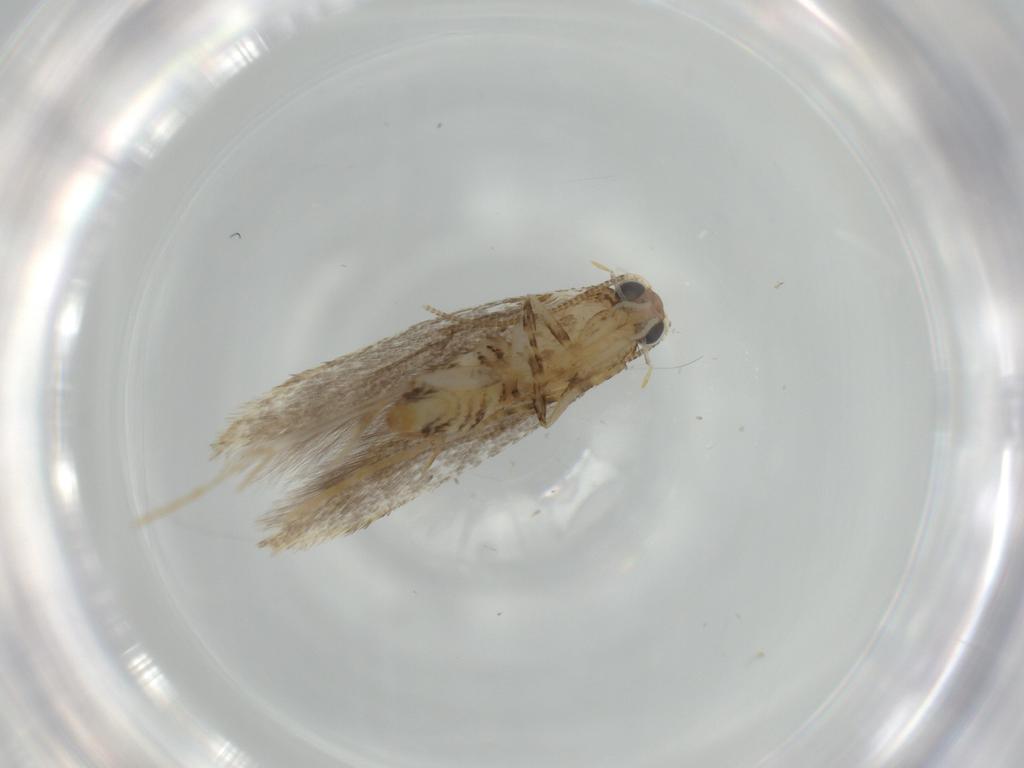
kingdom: Animalia
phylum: Arthropoda
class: Insecta
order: Lepidoptera
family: Tineidae
